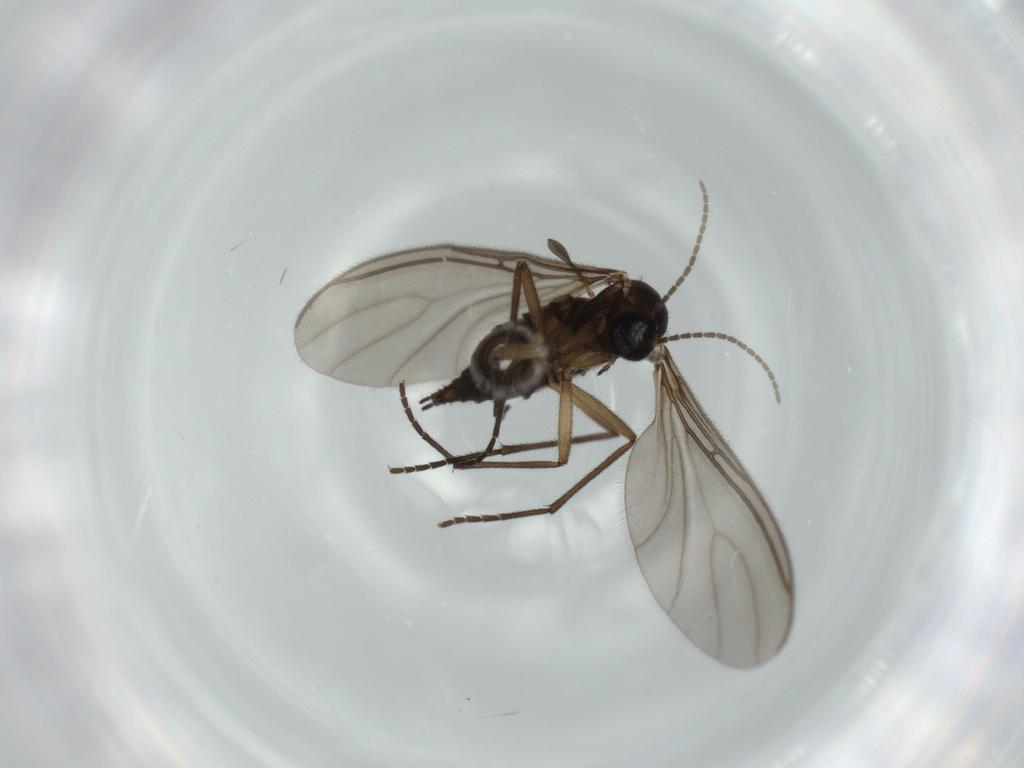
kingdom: Animalia
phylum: Arthropoda
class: Insecta
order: Diptera
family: Sciaridae
